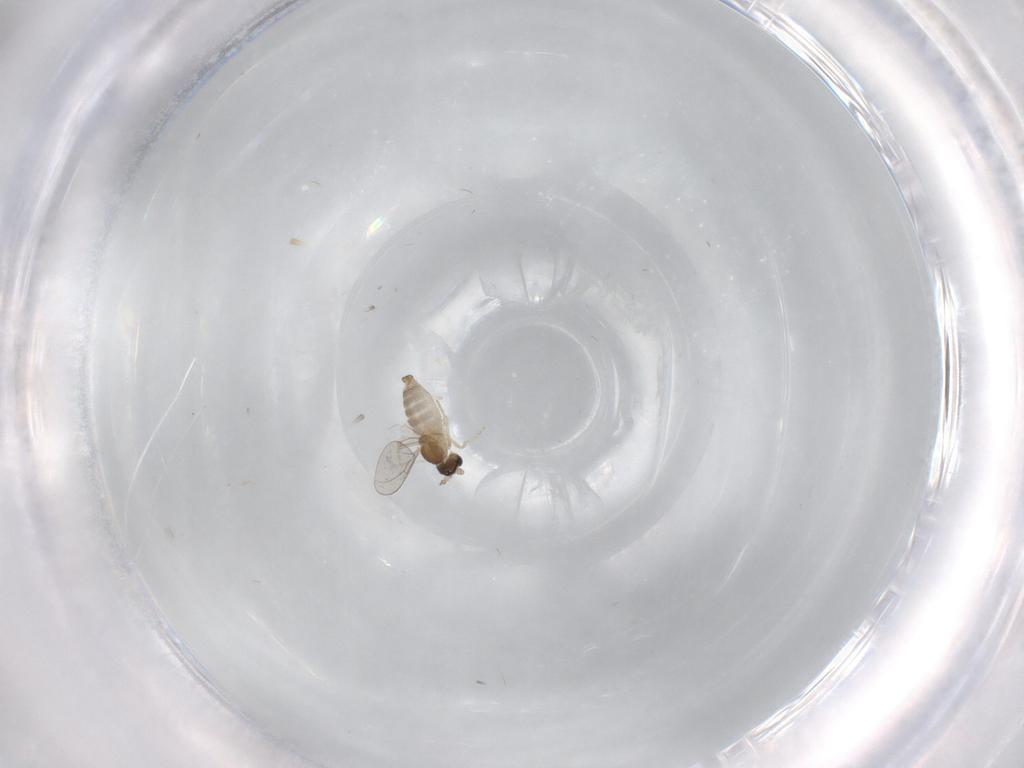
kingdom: Animalia
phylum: Arthropoda
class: Insecta
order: Diptera
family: Cecidomyiidae
